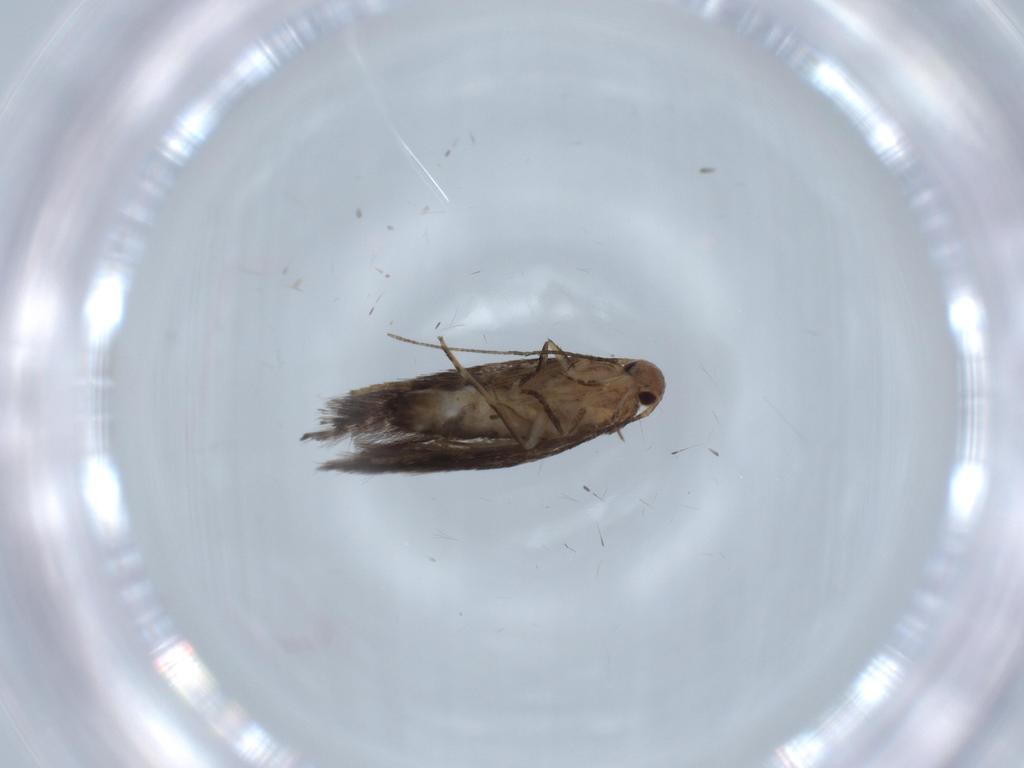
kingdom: Animalia
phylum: Arthropoda
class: Insecta
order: Lepidoptera
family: Gelechiidae
